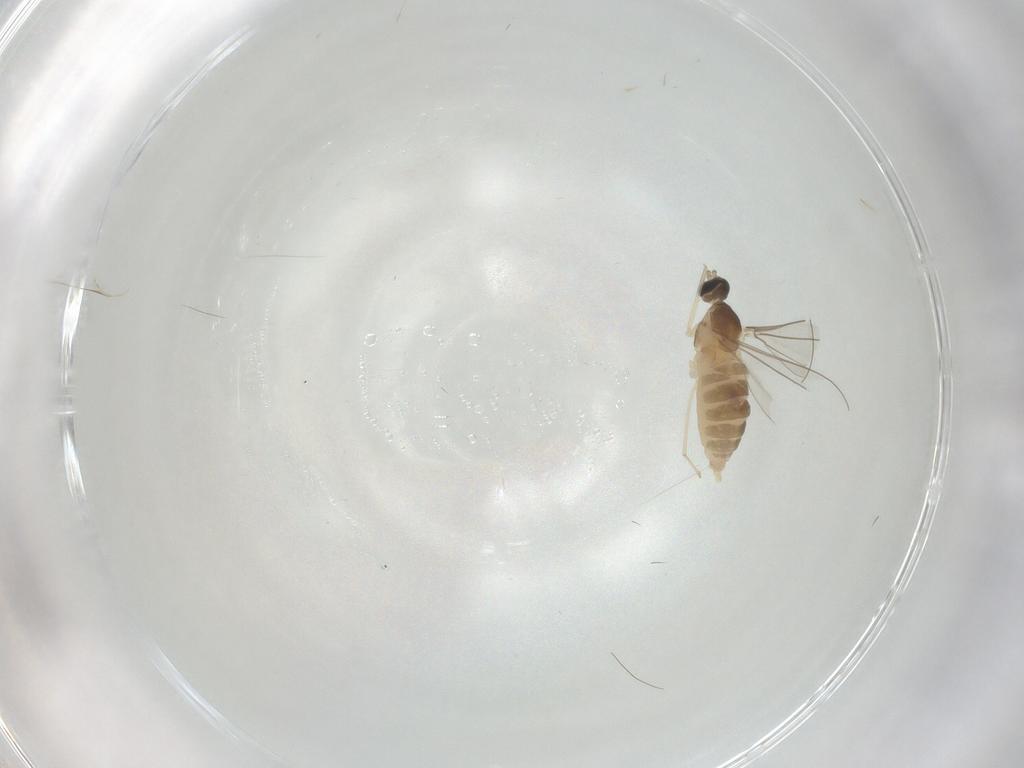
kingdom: Animalia
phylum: Arthropoda
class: Insecta
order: Diptera
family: Cecidomyiidae
